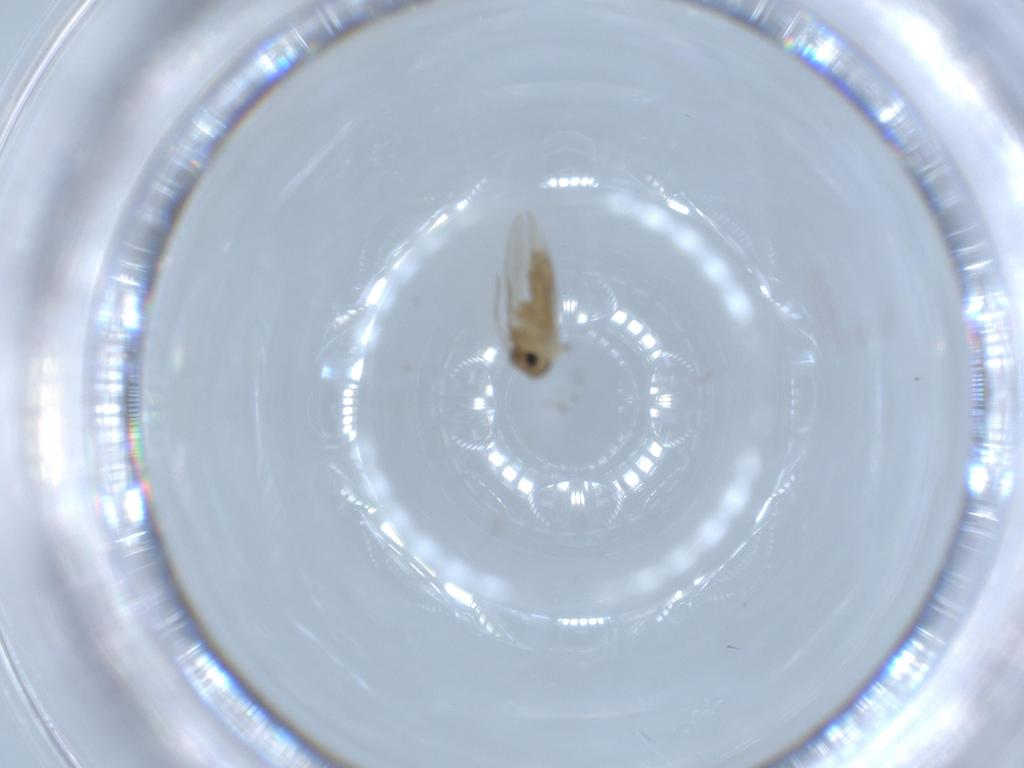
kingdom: Animalia
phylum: Arthropoda
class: Insecta
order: Diptera
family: Psychodidae
